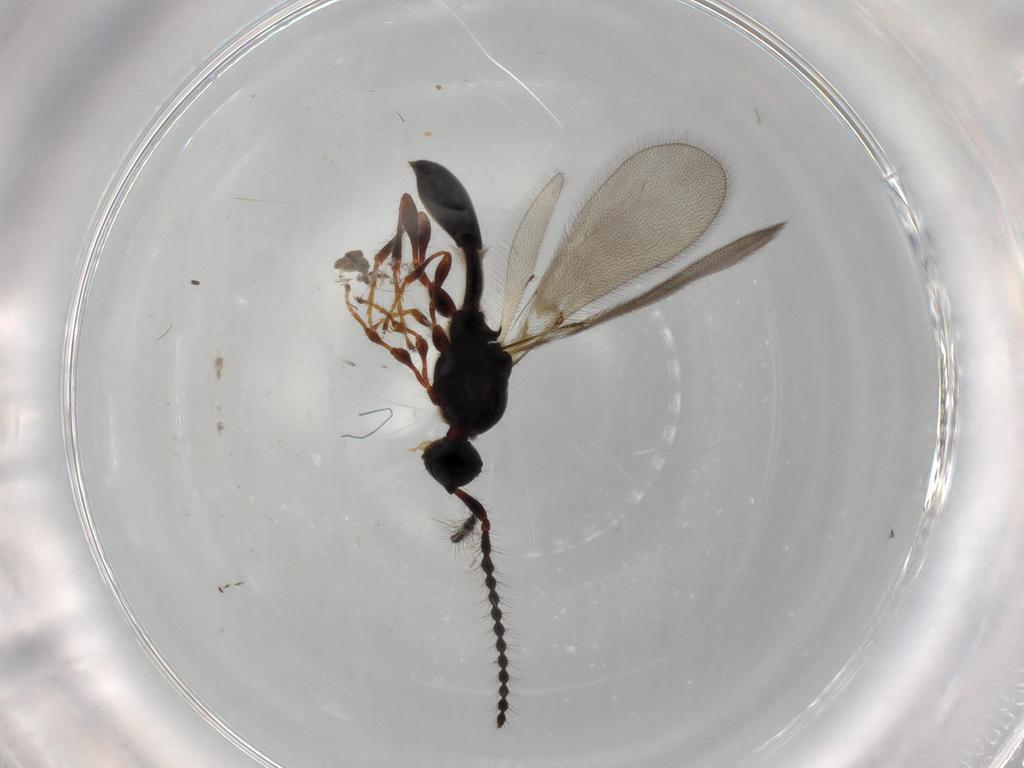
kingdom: Animalia
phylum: Arthropoda
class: Insecta
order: Hymenoptera
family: Diapriidae
